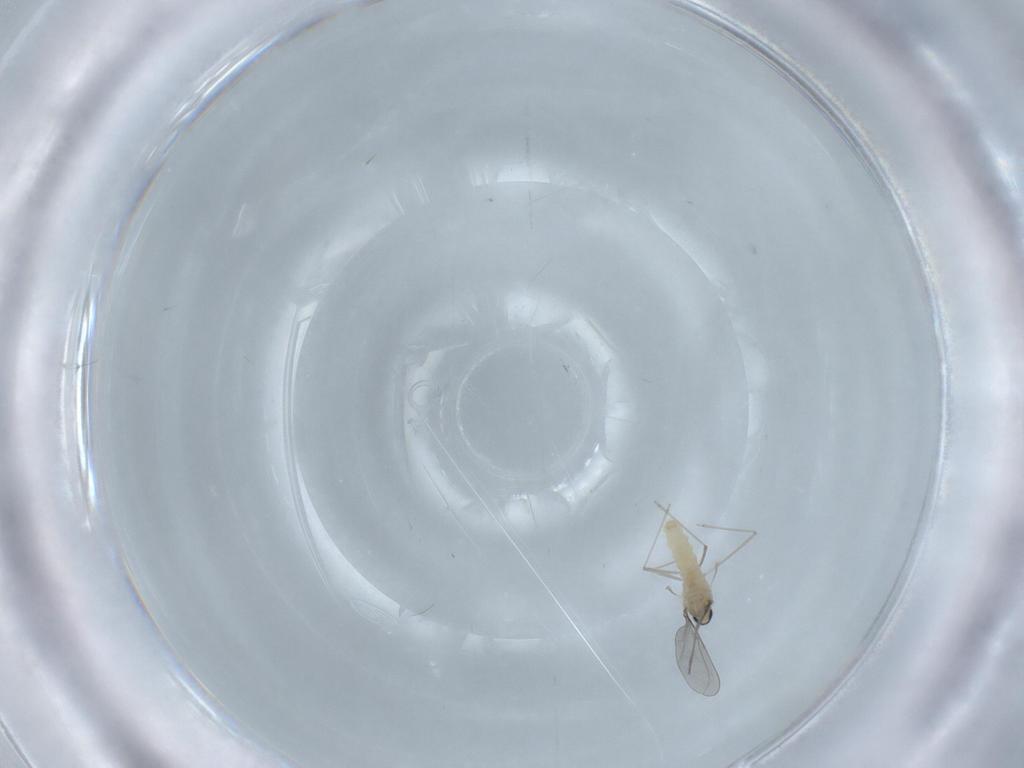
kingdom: Animalia
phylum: Arthropoda
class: Insecta
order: Diptera
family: Cecidomyiidae
